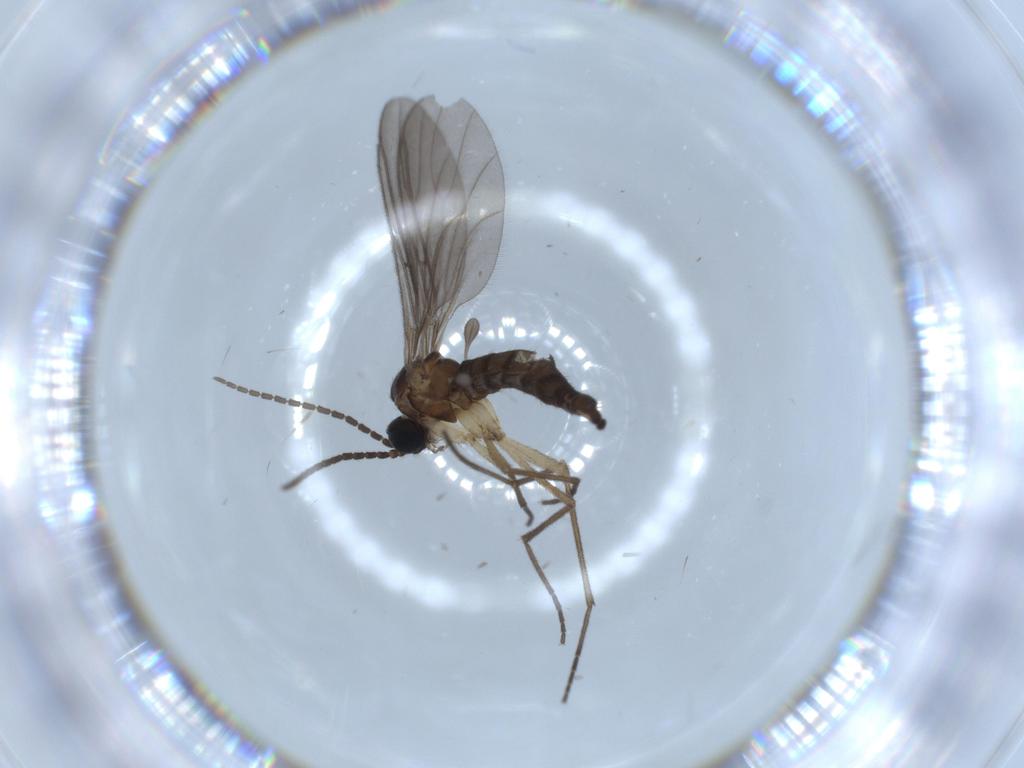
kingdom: Animalia
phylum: Arthropoda
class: Insecta
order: Diptera
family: Sciaridae
